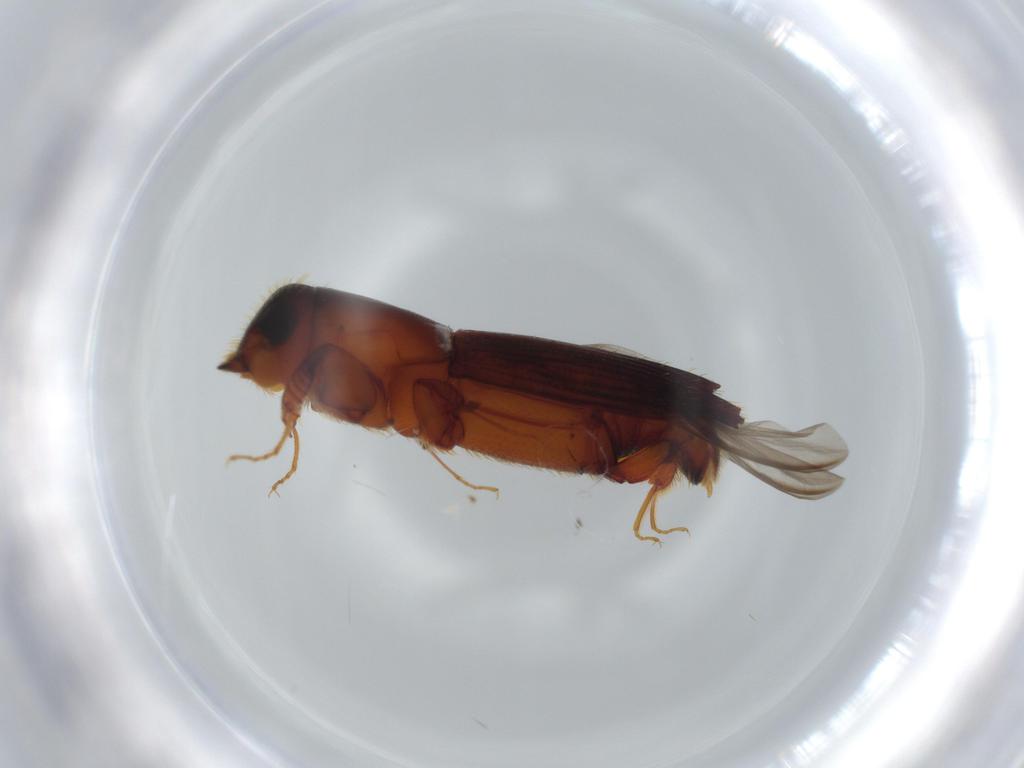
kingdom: Animalia
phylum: Arthropoda
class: Insecta
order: Coleoptera
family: Curculionidae
